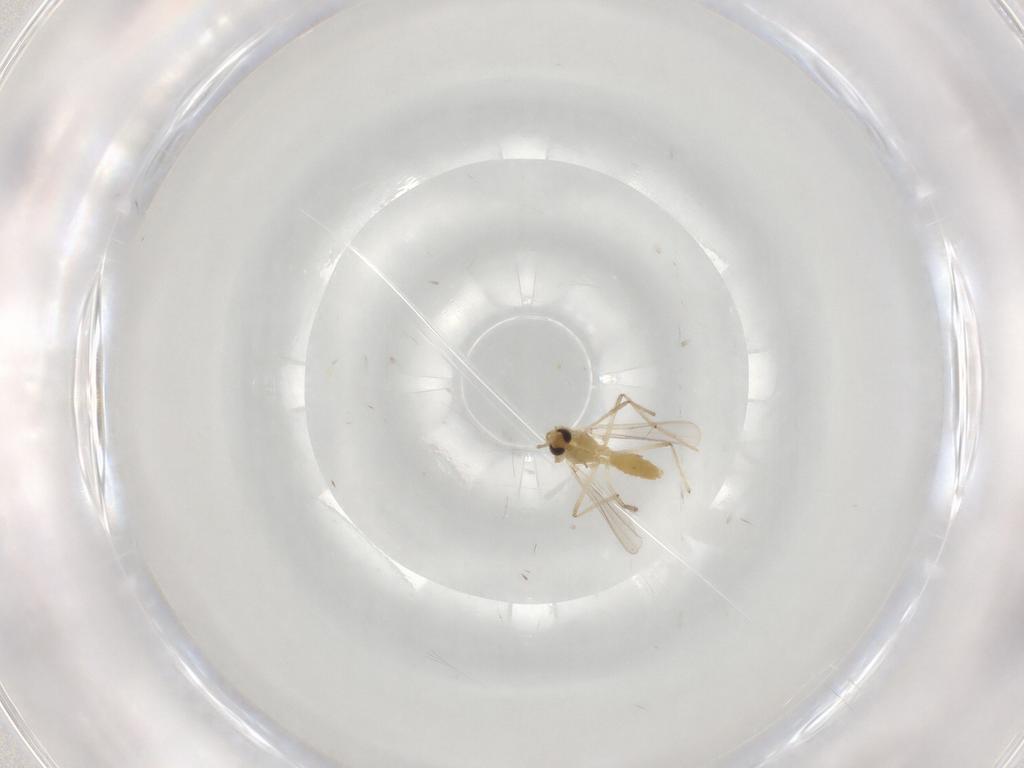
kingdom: Animalia
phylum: Arthropoda
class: Insecta
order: Diptera
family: Chironomidae
